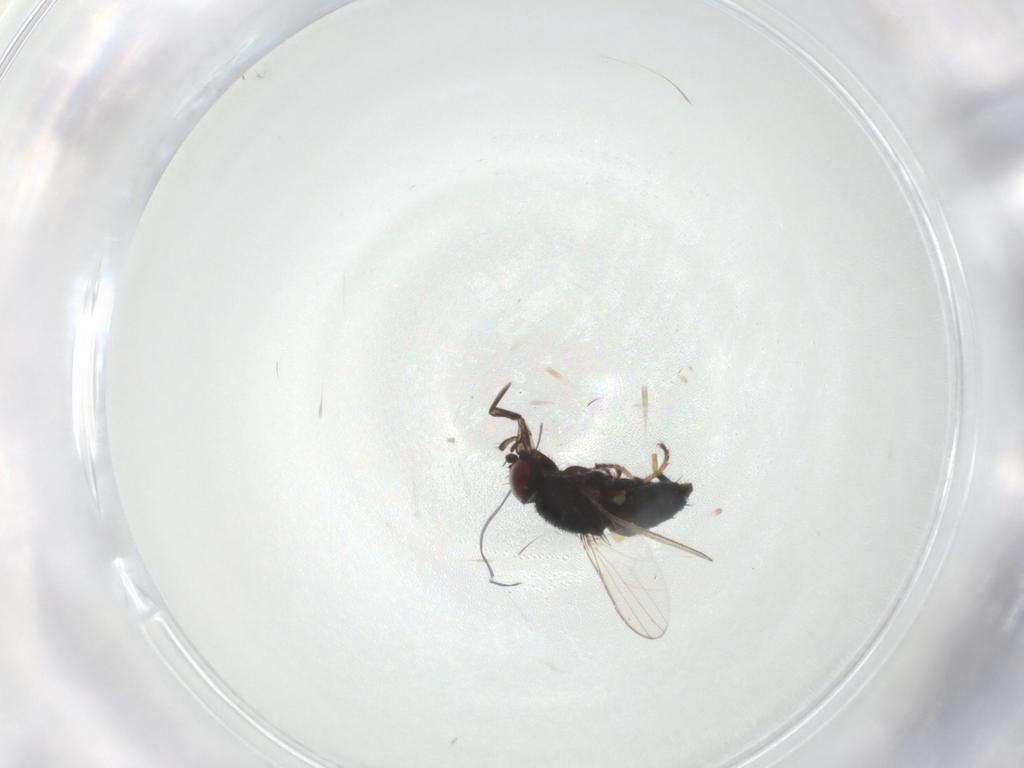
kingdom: Animalia
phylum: Arthropoda
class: Insecta
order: Diptera
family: Milichiidae
